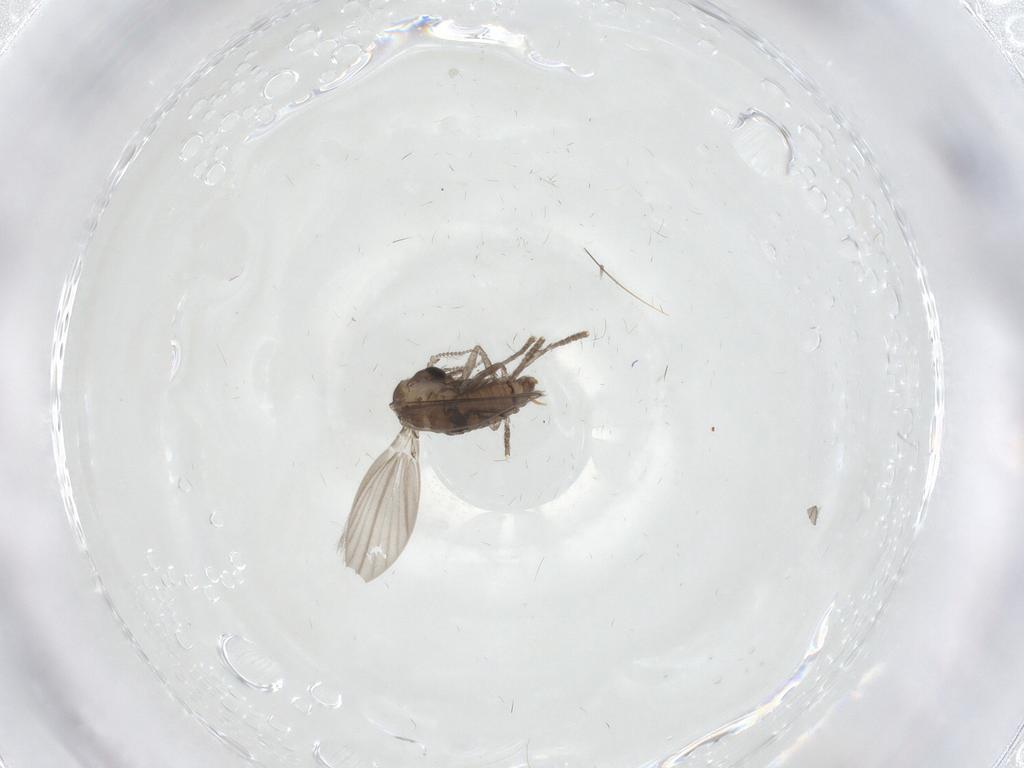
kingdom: Animalia
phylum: Arthropoda
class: Insecta
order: Diptera
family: Psychodidae
